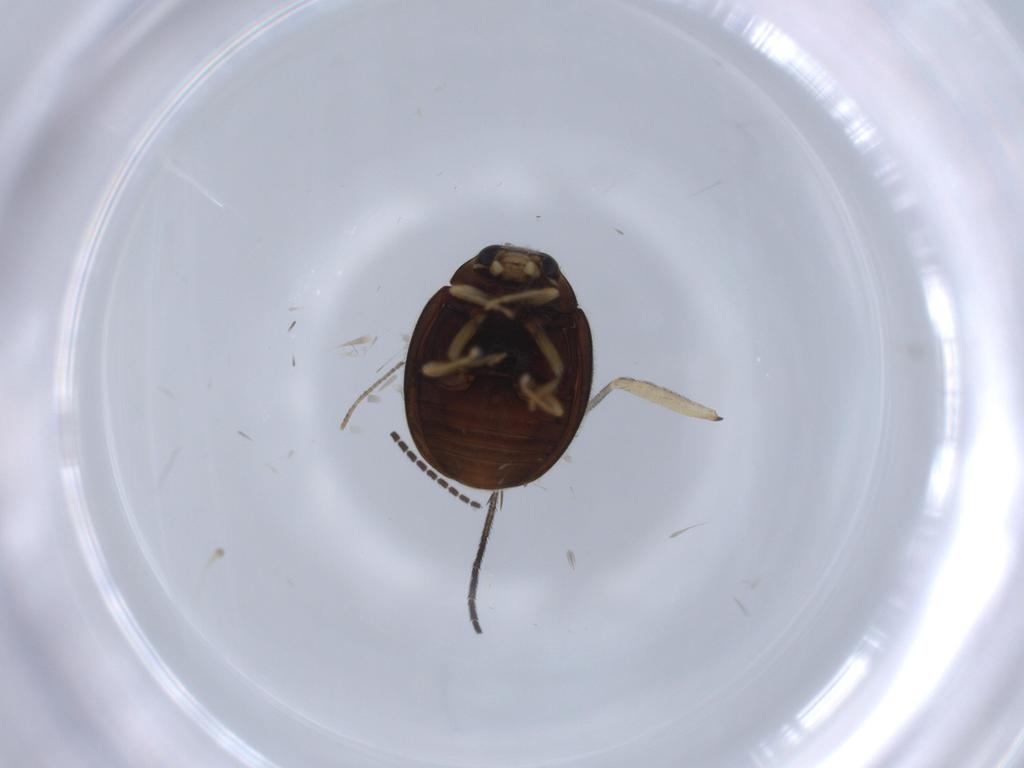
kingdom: Animalia
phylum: Arthropoda
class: Insecta
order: Coleoptera
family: Coccinellidae
